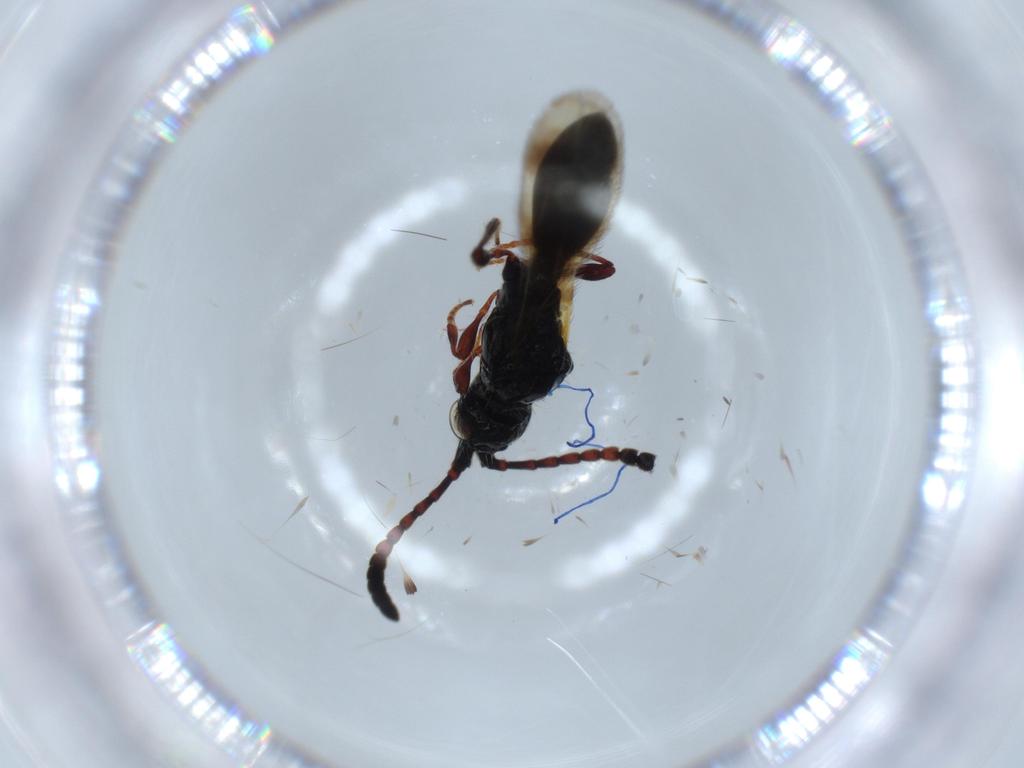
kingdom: Animalia
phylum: Arthropoda
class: Insecta
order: Hymenoptera
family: Diapriidae
